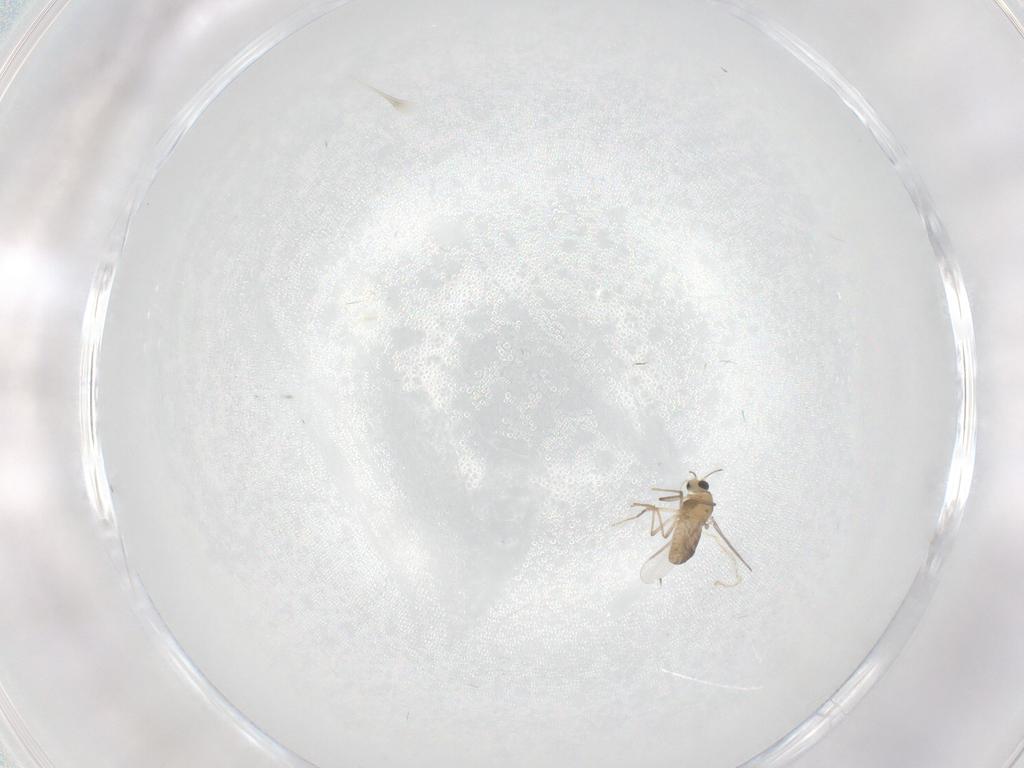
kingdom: Animalia
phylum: Arthropoda
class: Insecta
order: Diptera
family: Chironomidae
